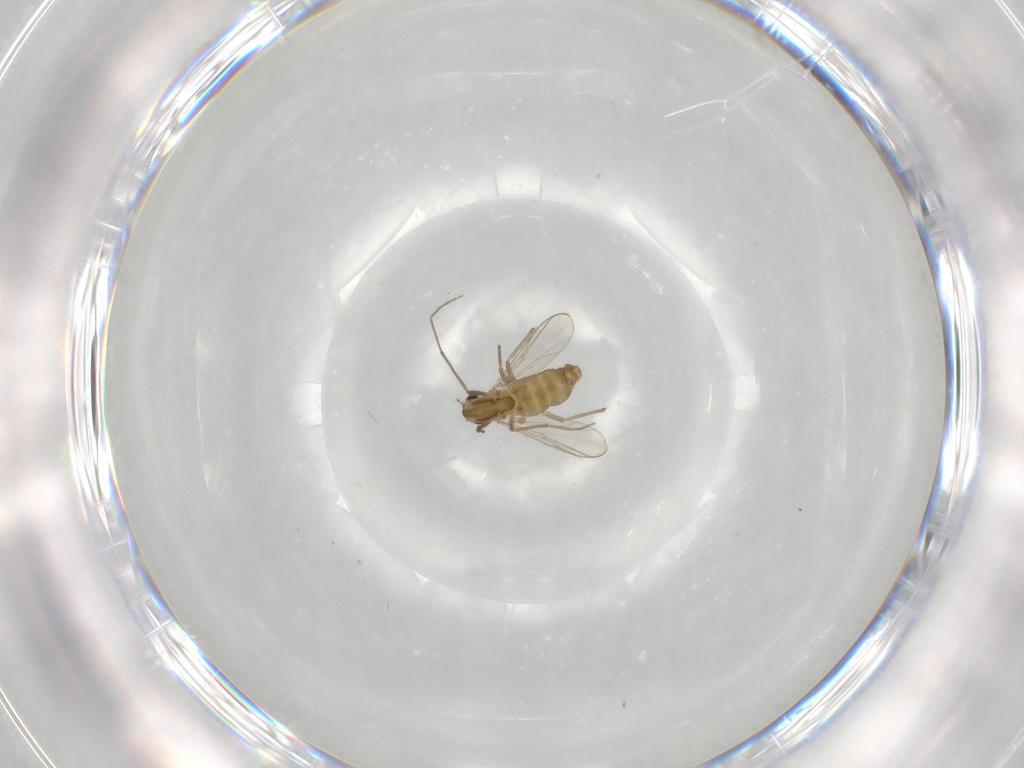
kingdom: Animalia
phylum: Arthropoda
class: Insecta
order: Diptera
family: Chironomidae
